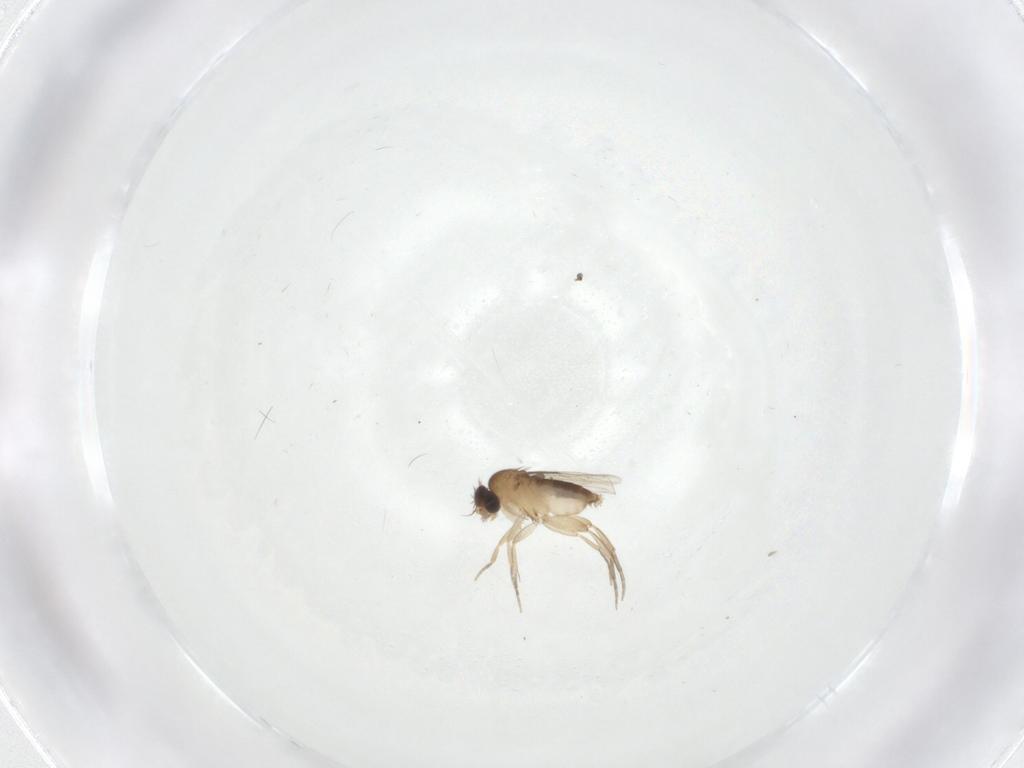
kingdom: Animalia
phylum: Arthropoda
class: Insecta
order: Diptera
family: Phoridae
